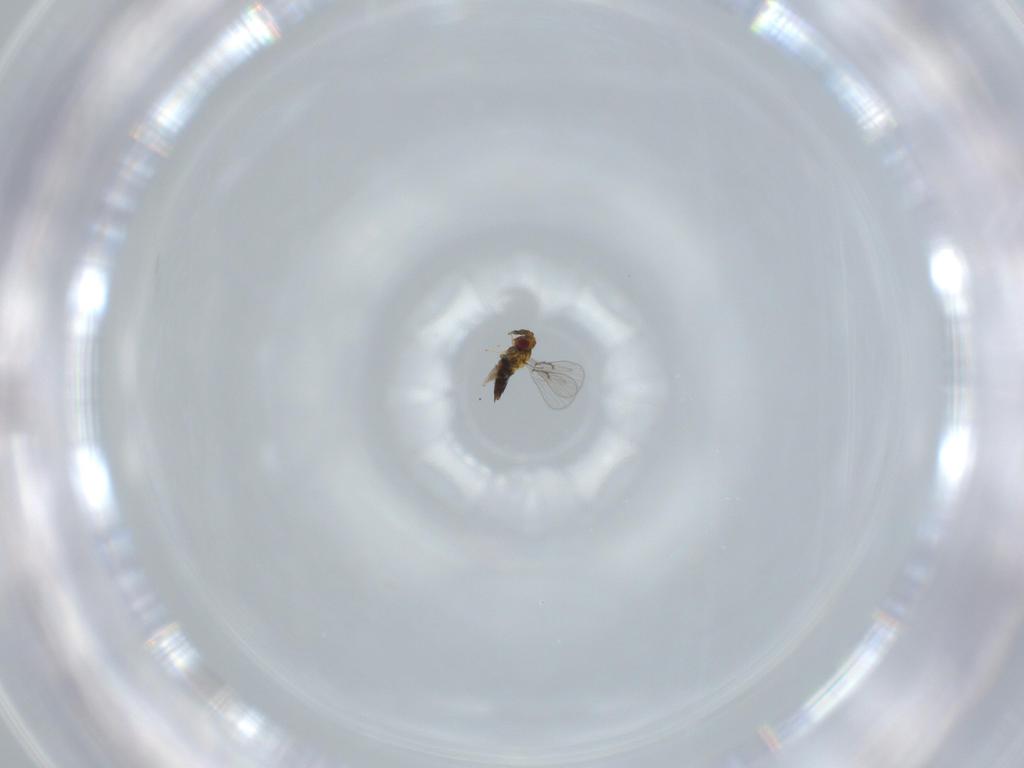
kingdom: Animalia
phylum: Arthropoda
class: Insecta
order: Hymenoptera
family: Trichogrammatidae
